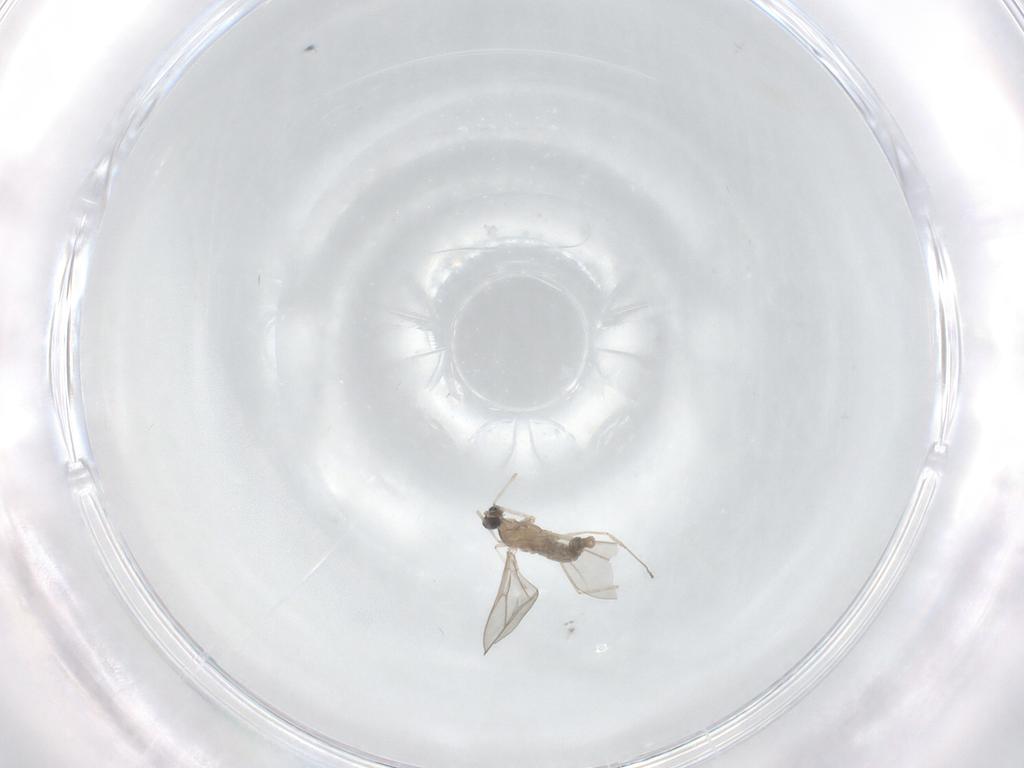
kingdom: Animalia
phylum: Arthropoda
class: Insecta
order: Diptera
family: Cecidomyiidae
